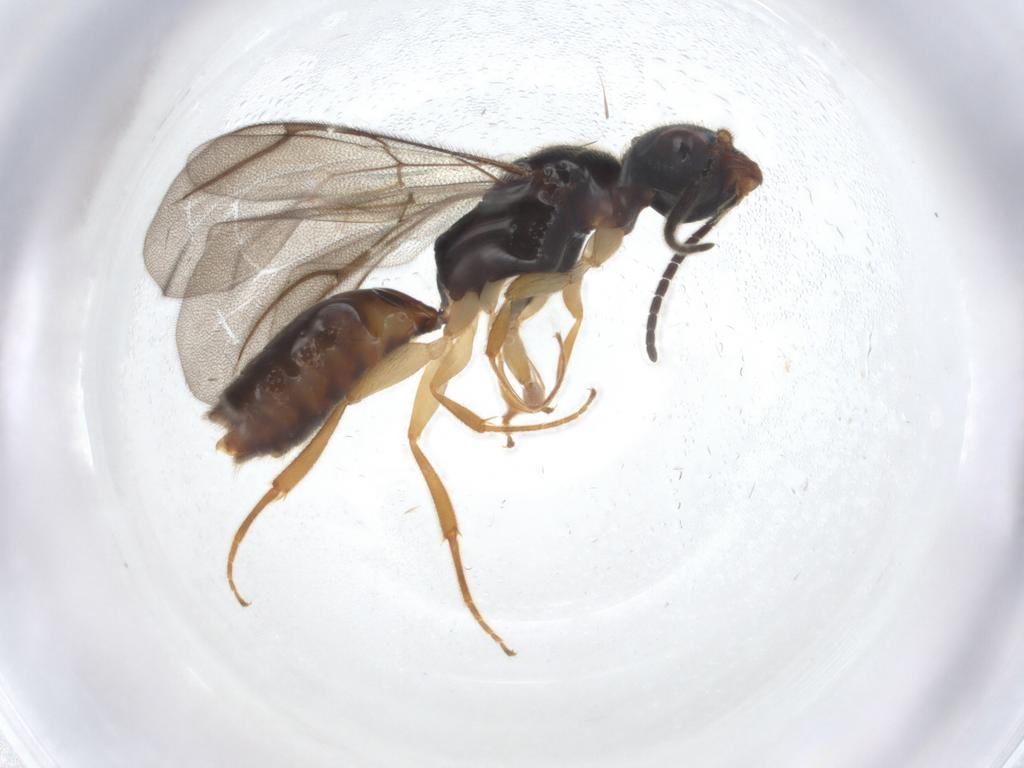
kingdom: Animalia
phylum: Arthropoda
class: Insecta
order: Hymenoptera
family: Bethylidae
